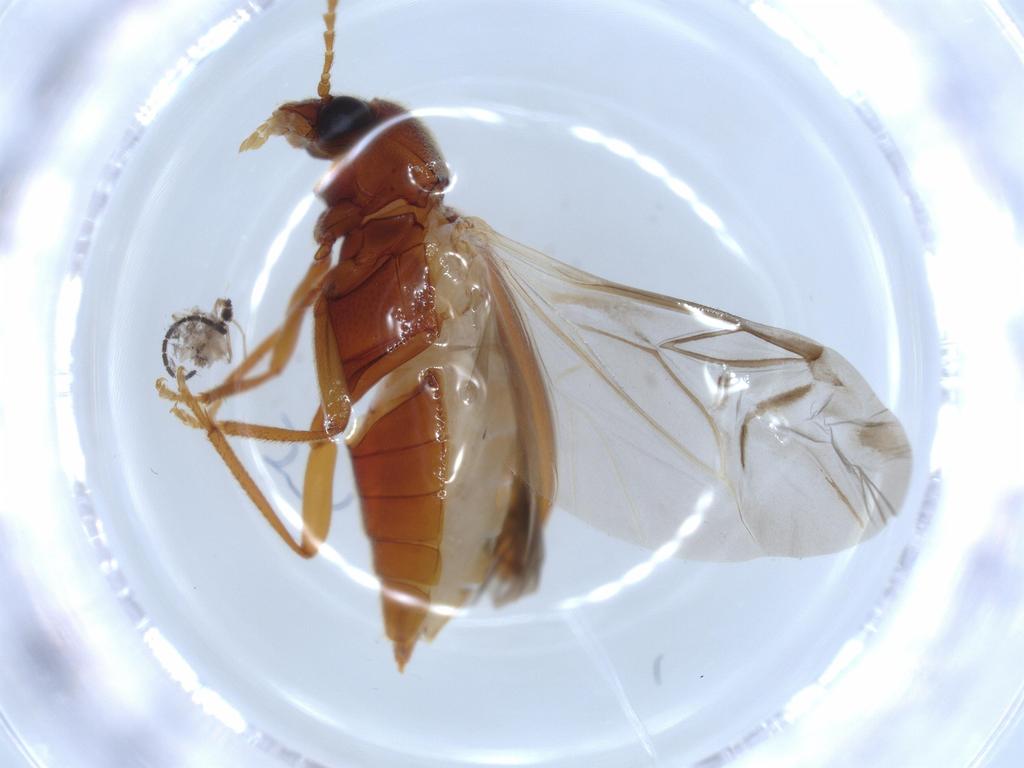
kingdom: Animalia
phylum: Arthropoda
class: Insecta
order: Coleoptera
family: Ptilodactylidae
